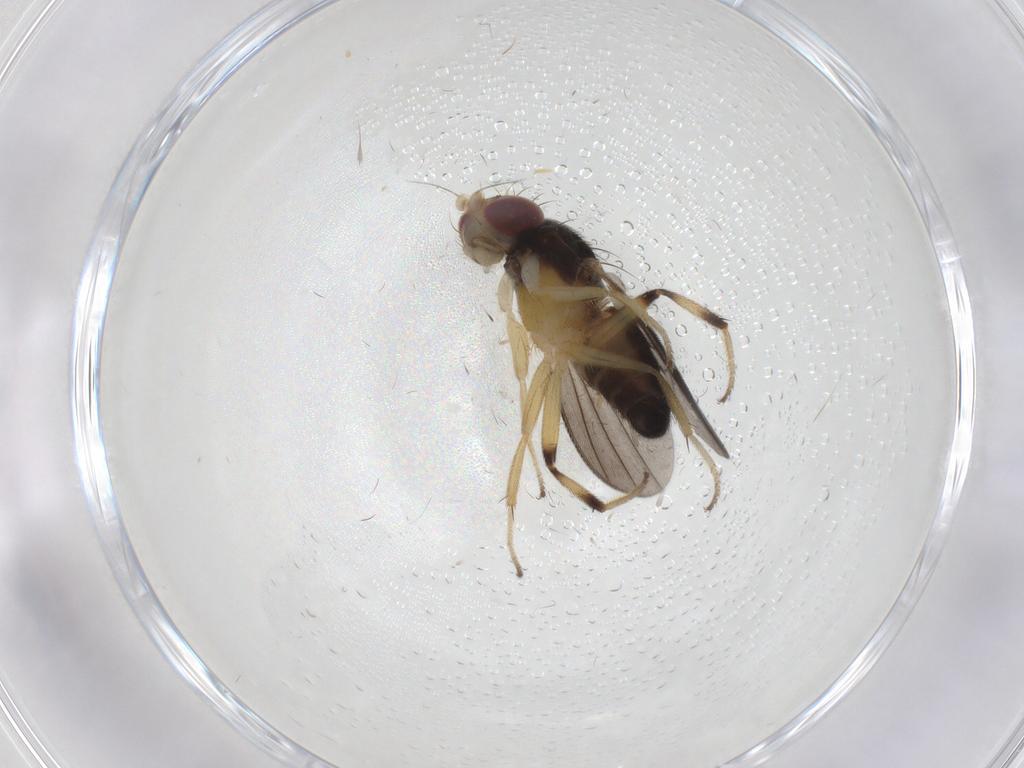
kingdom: Animalia
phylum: Arthropoda
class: Insecta
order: Diptera
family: Clusiidae
